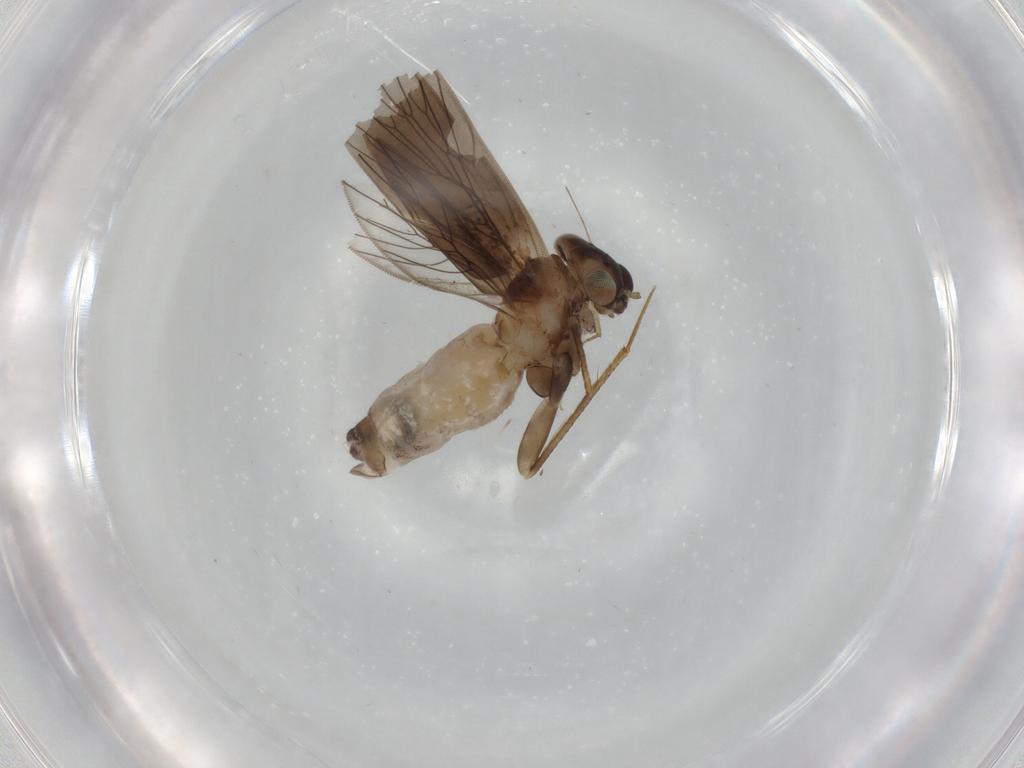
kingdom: Animalia
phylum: Arthropoda
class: Insecta
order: Psocodea
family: Lepidopsocidae
